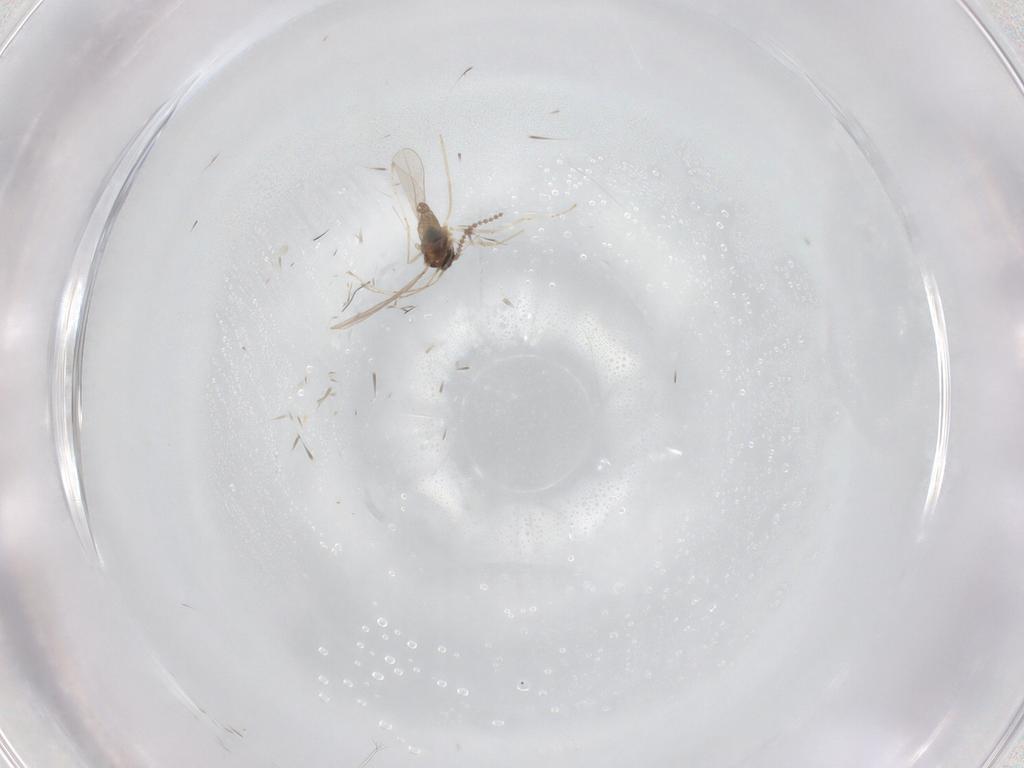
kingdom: Animalia
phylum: Arthropoda
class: Insecta
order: Diptera
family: Cecidomyiidae
